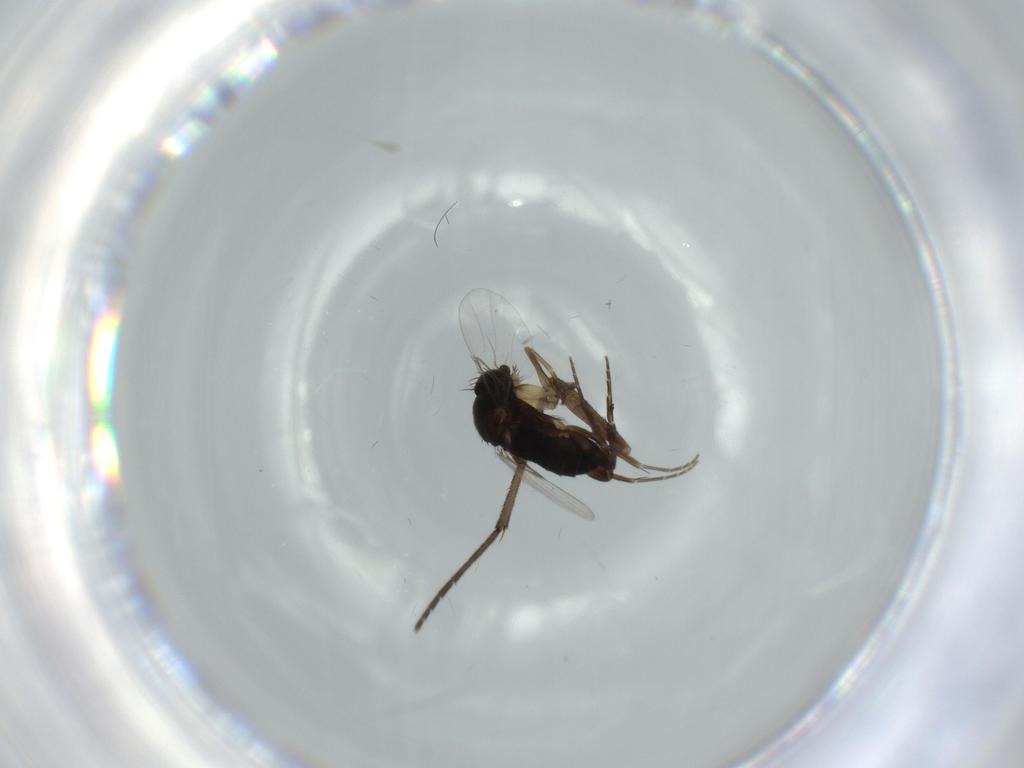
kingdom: Animalia
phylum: Arthropoda
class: Insecta
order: Diptera
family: Phoridae
